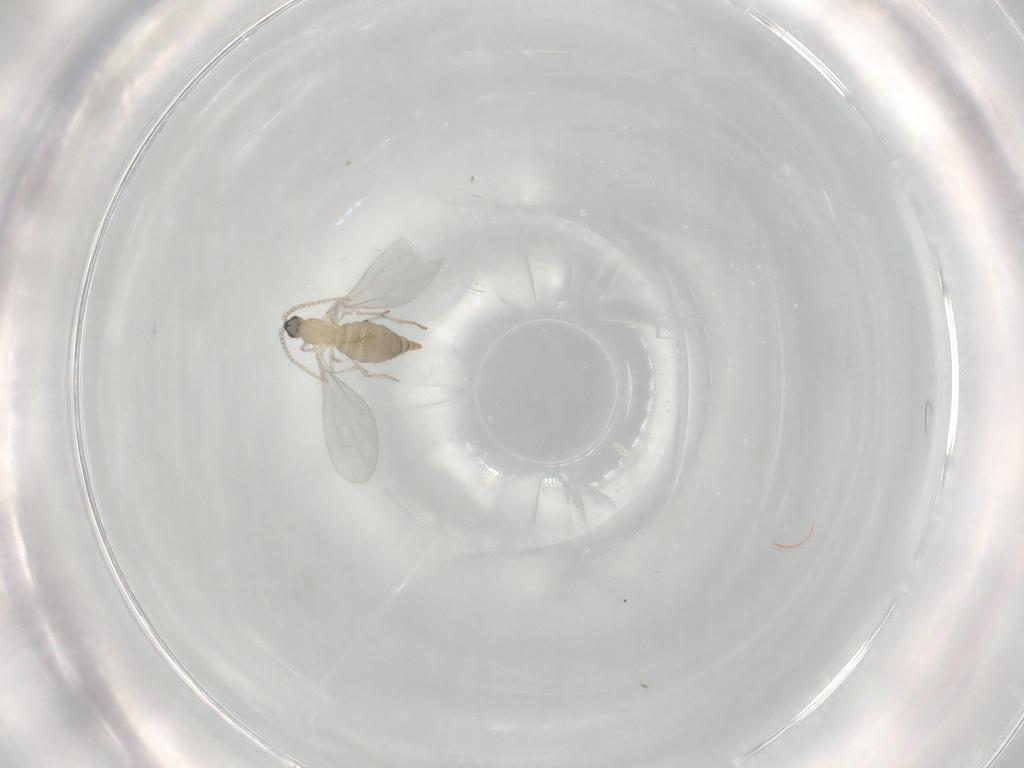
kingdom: Animalia
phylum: Arthropoda
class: Insecta
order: Diptera
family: Cecidomyiidae
